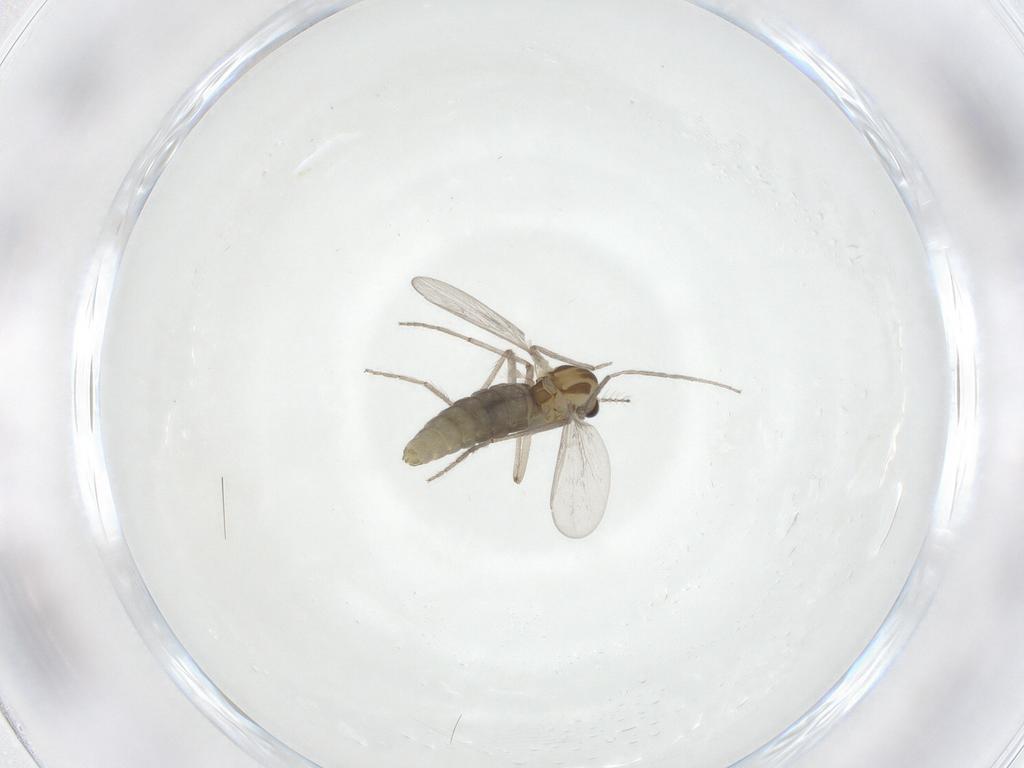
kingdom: Animalia
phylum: Arthropoda
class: Insecta
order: Diptera
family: Chironomidae
